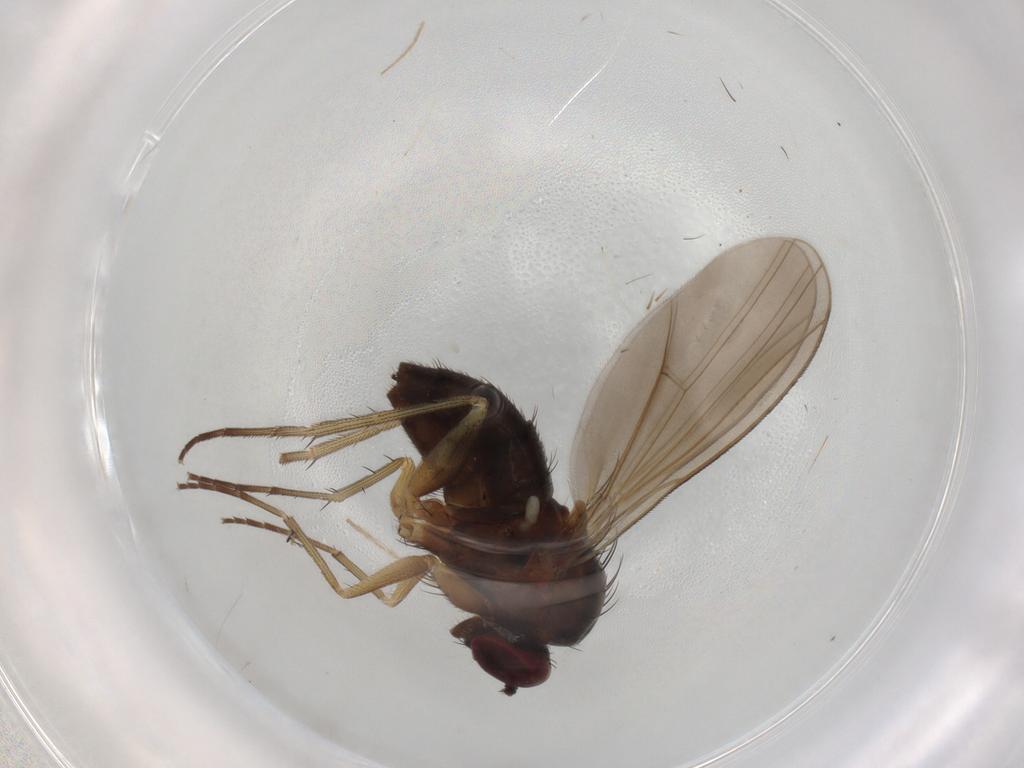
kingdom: Animalia
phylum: Arthropoda
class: Insecta
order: Diptera
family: Dolichopodidae
